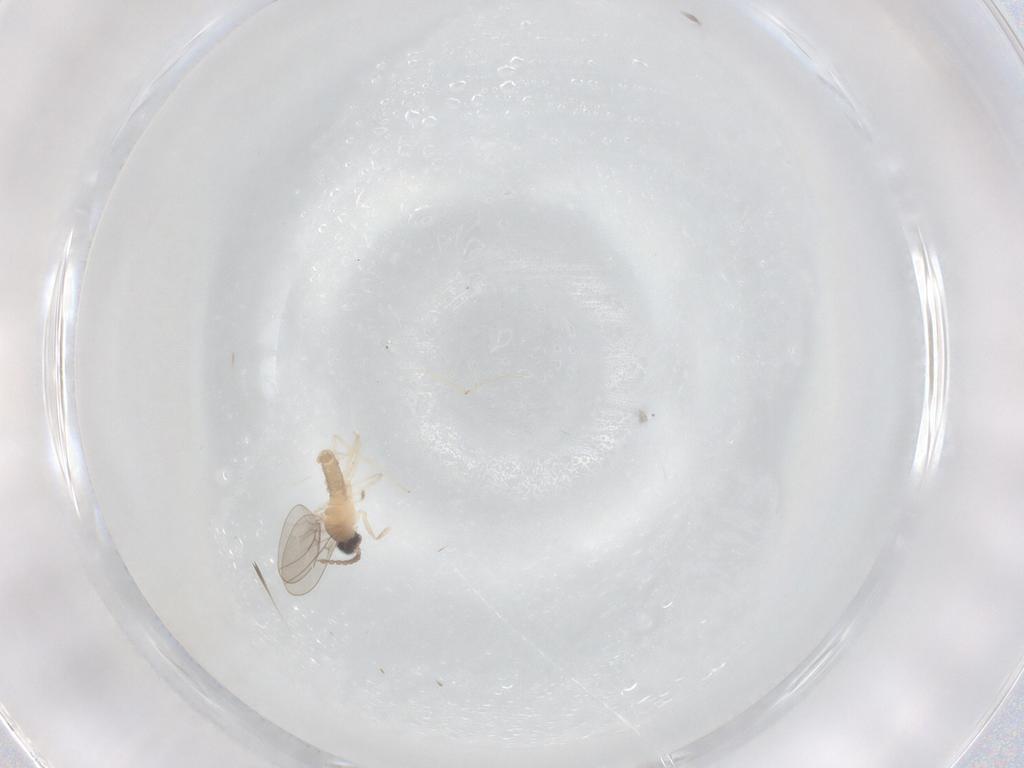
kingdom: Animalia
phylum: Arthropoda
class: Insecta
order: Diptera
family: Cecidomyiidae
